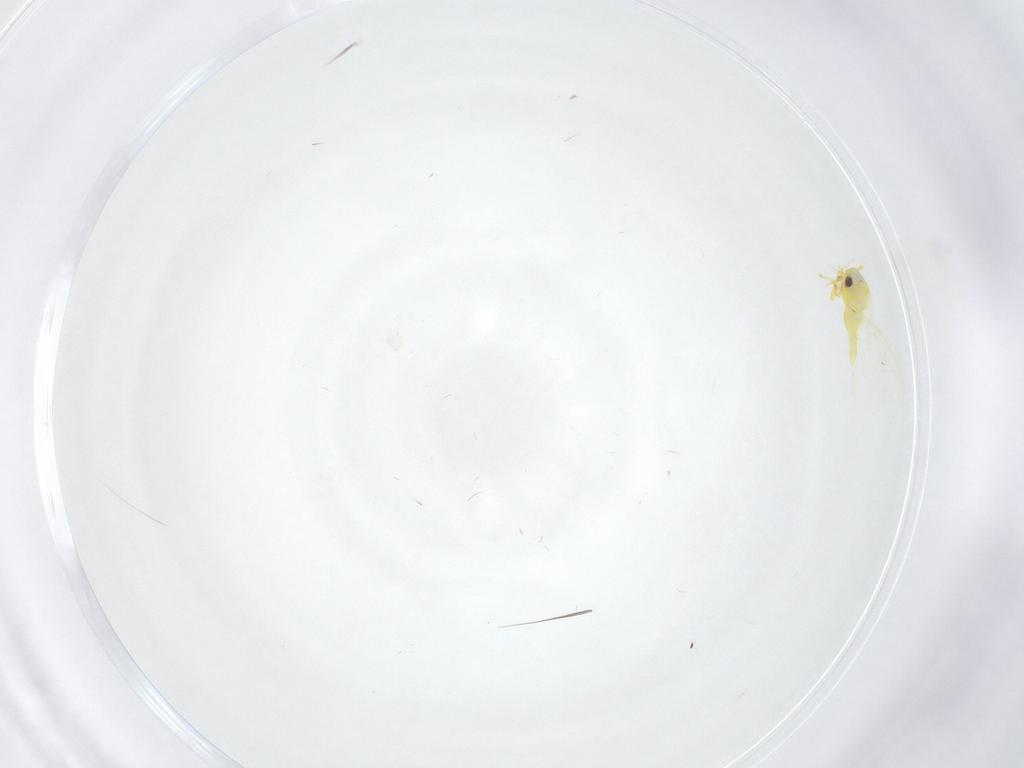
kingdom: Animalia
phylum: Arthropoda
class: Insecta
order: Hemiptera
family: Aleyrodidae
